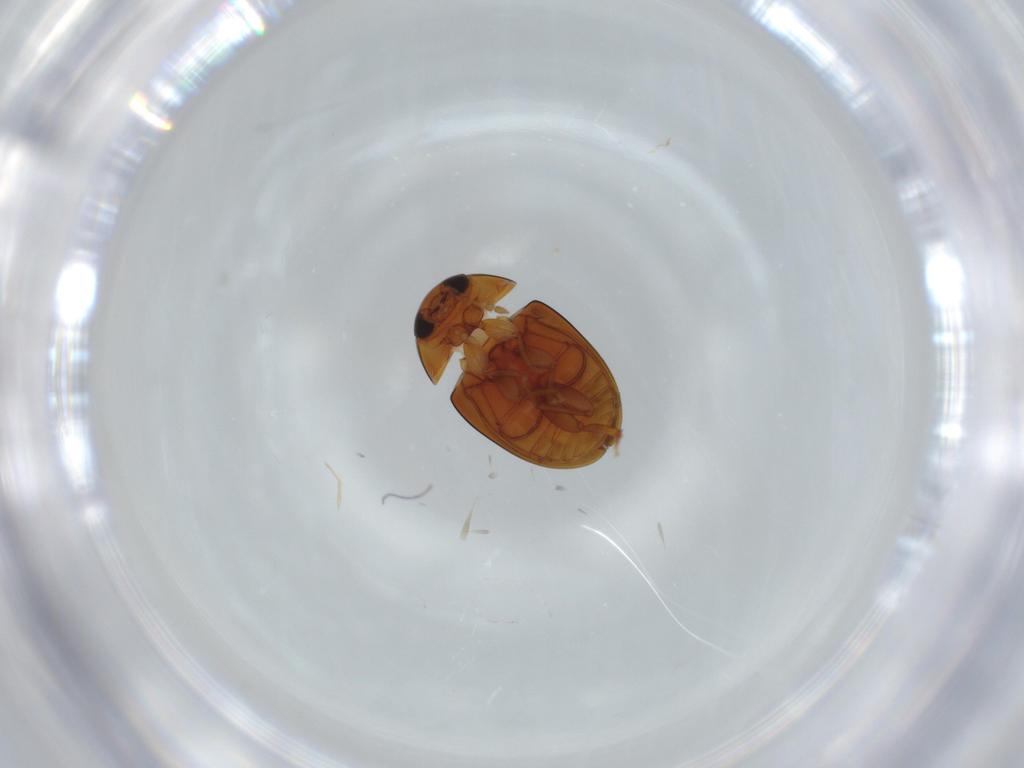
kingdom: Animalia
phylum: Arthropoda
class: Insecta
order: Coleoptera
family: Phalacridae
